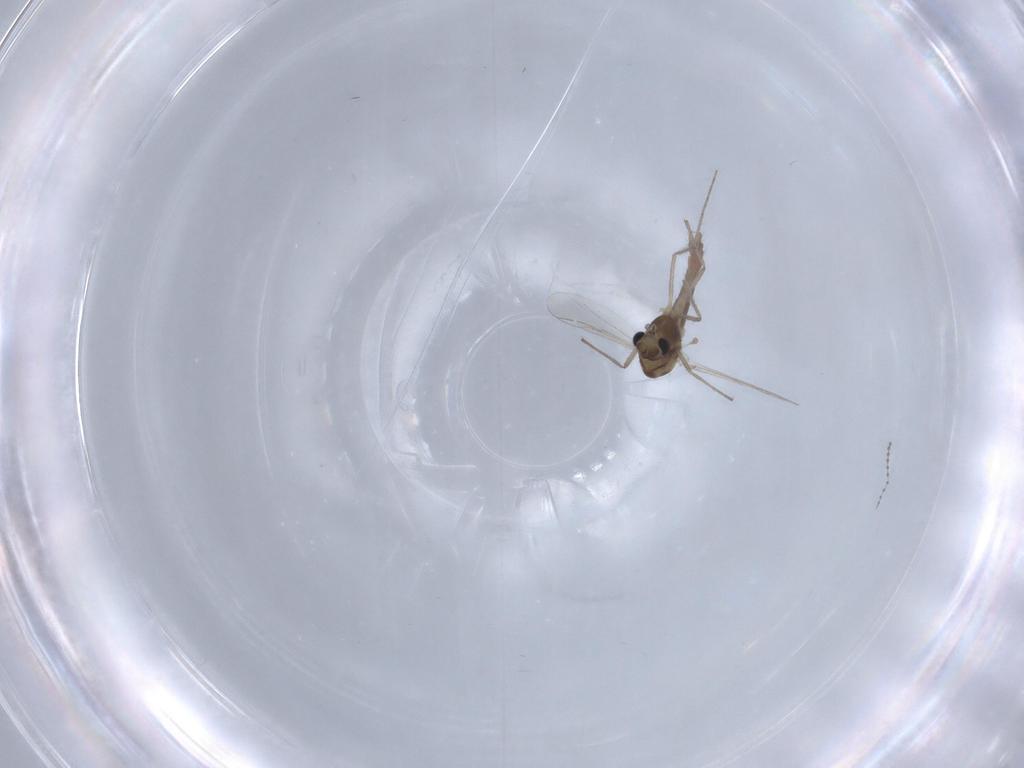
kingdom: Animalia
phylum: Arthropoda
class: Insecta
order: Diptera
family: Chironomidae
